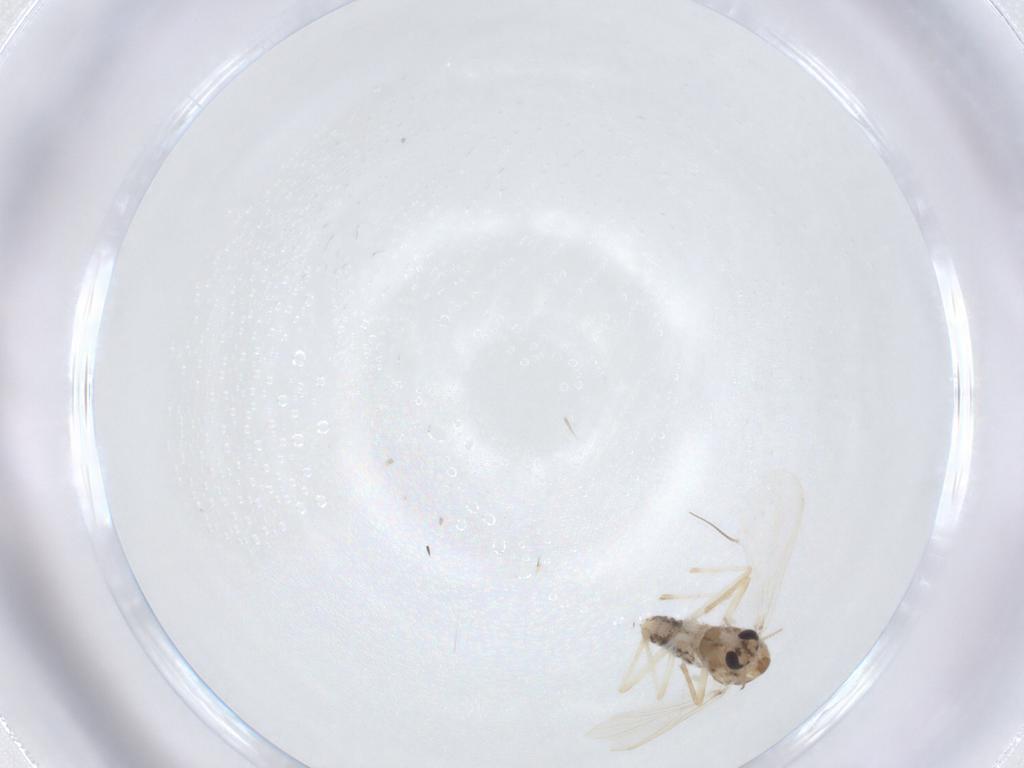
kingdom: Animalia
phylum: Arthropoda
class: Insecta
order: Diptera
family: Chironomidae
